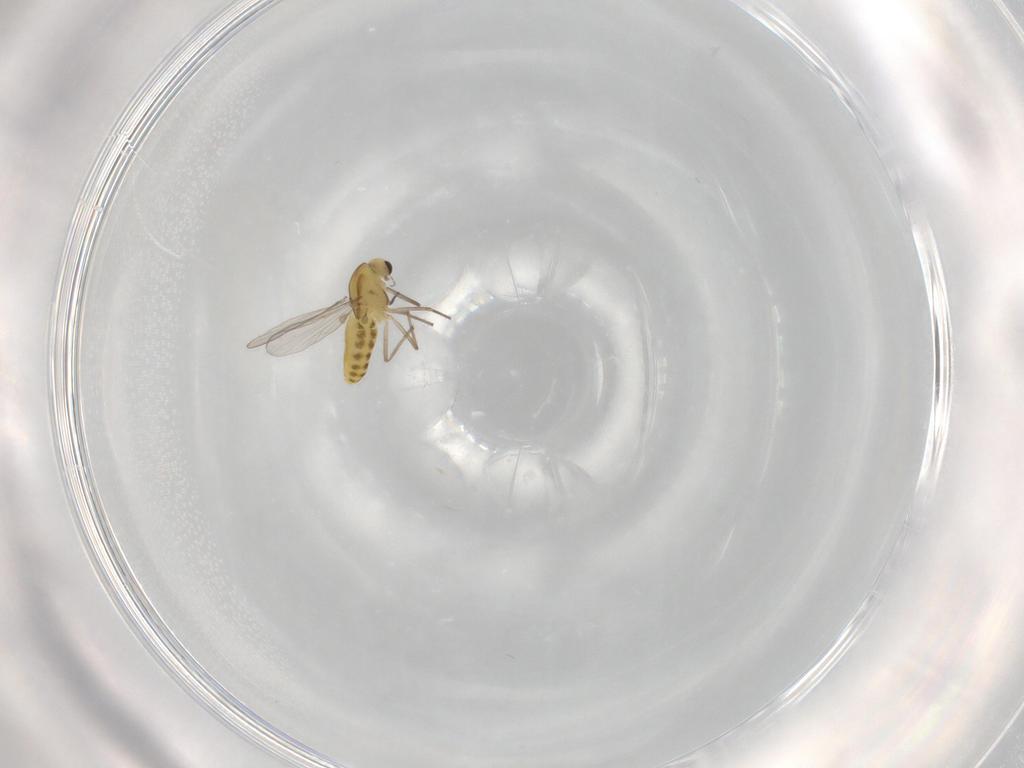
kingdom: Animalia
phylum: Arthropoda
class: Insecta
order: Diptera
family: Chironomidae
